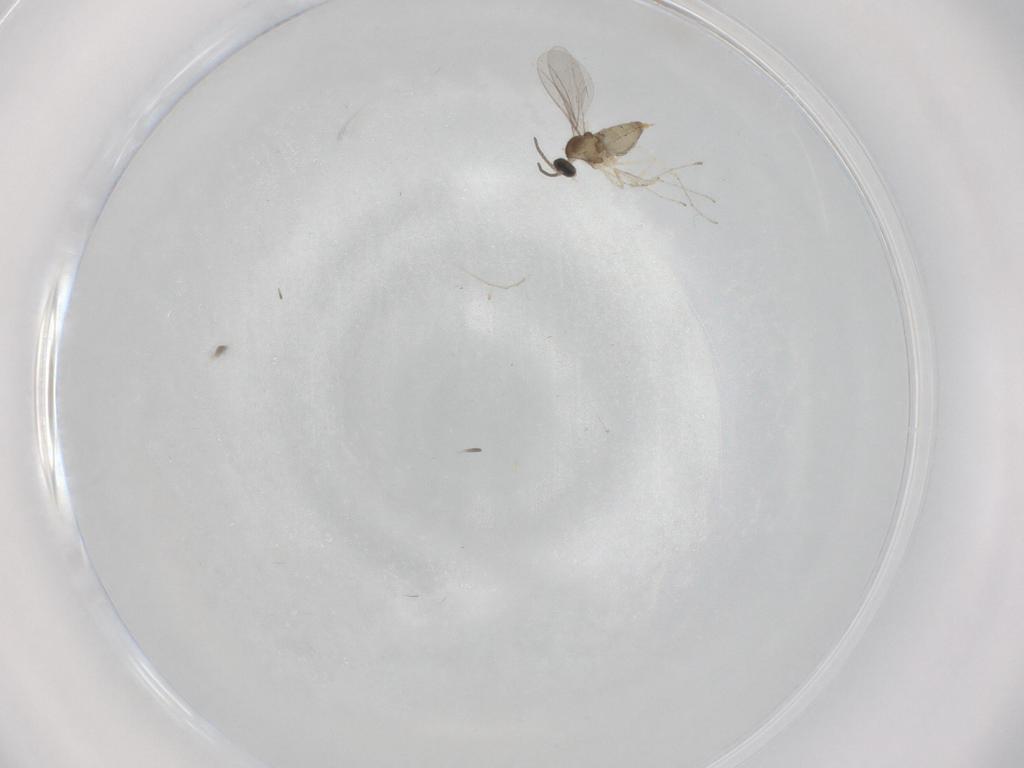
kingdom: Animalia
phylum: Arthropoda
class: Insecta
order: Diptera
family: Cecidomyiidae
